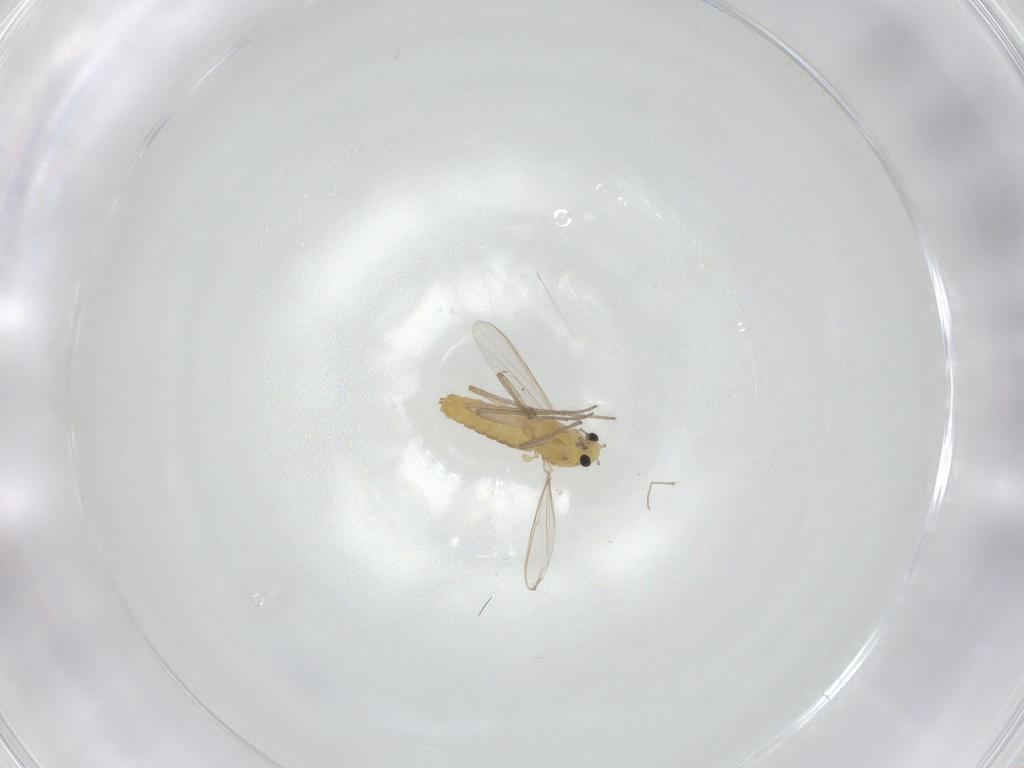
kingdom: Animalia
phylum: Arthropoda
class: Insecta
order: Diptera
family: Chironomidae
